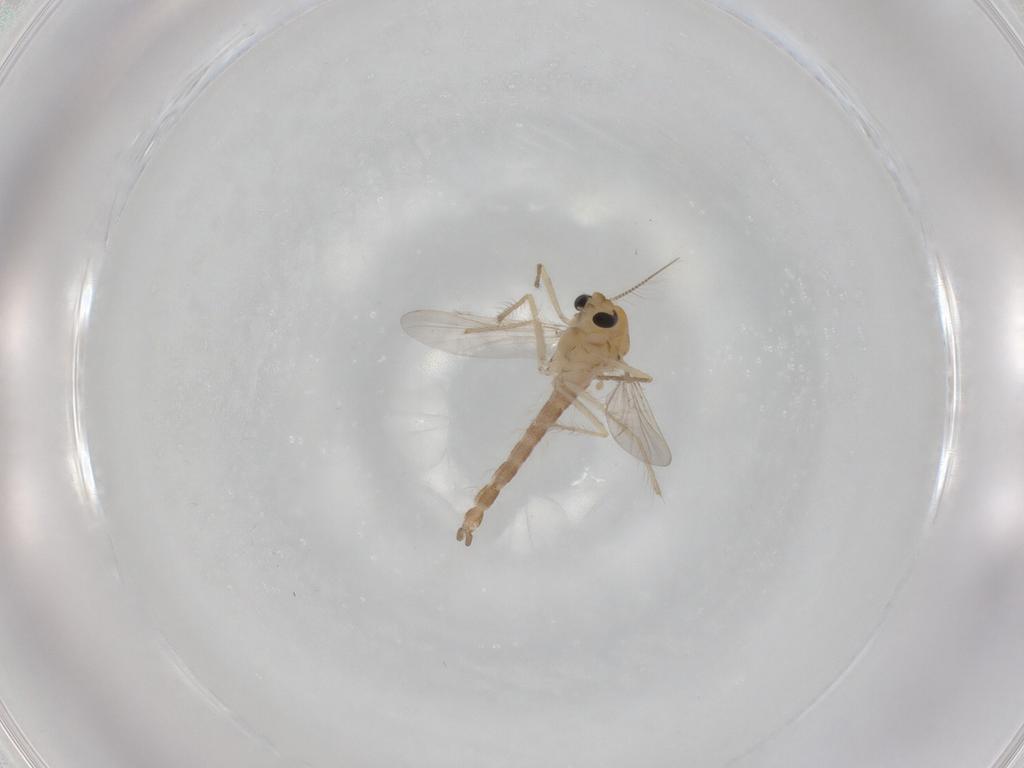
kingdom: Animalia
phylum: Arthropoda
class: Insecta
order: Diptera
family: Chironomidae
